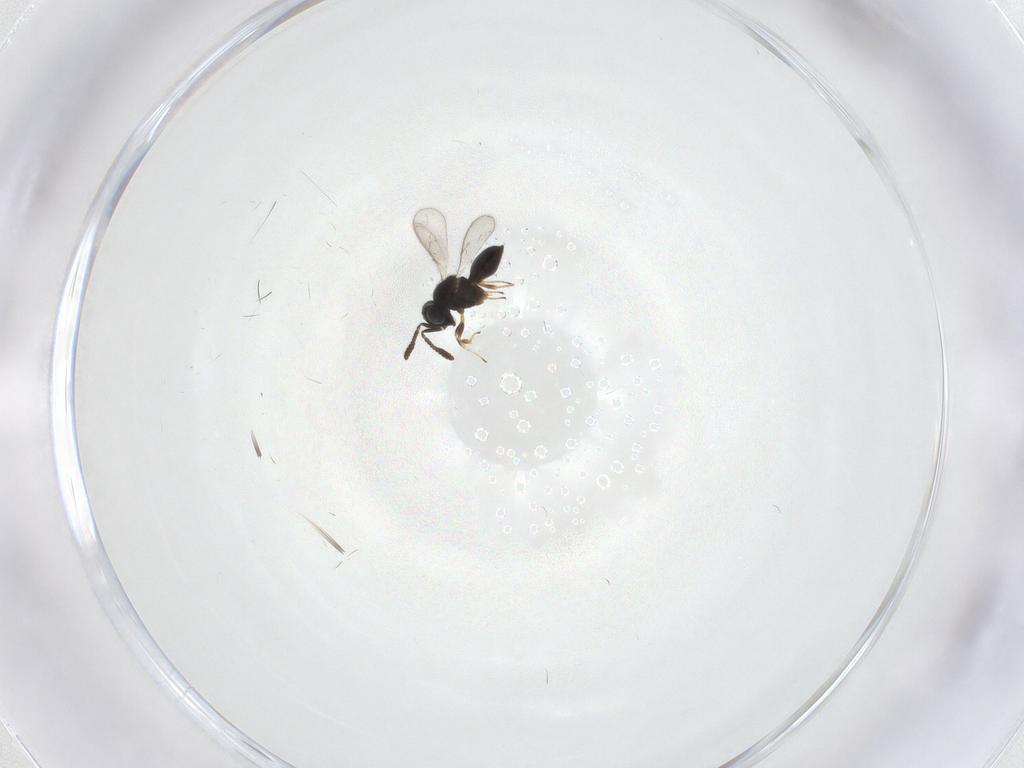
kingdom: Animalia
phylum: Arthropoda
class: Insecta
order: Hymenoptera
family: Scelionidae
